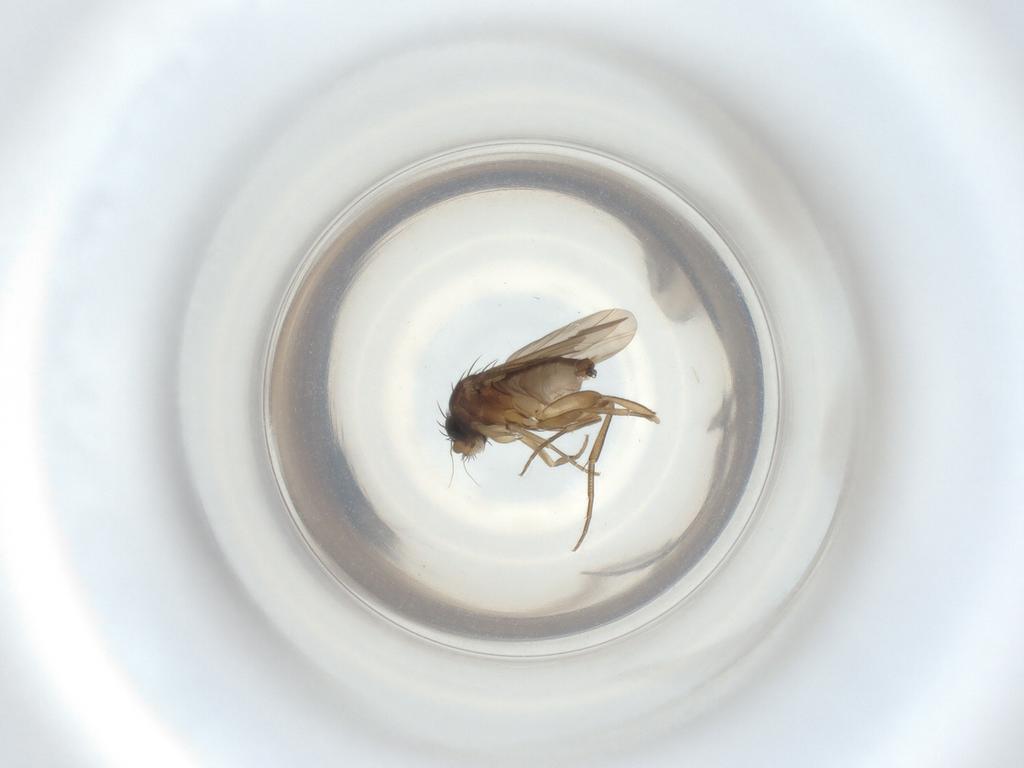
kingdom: Animalia
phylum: Arthropoda
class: Insecta
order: Diptera
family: Phoridae
